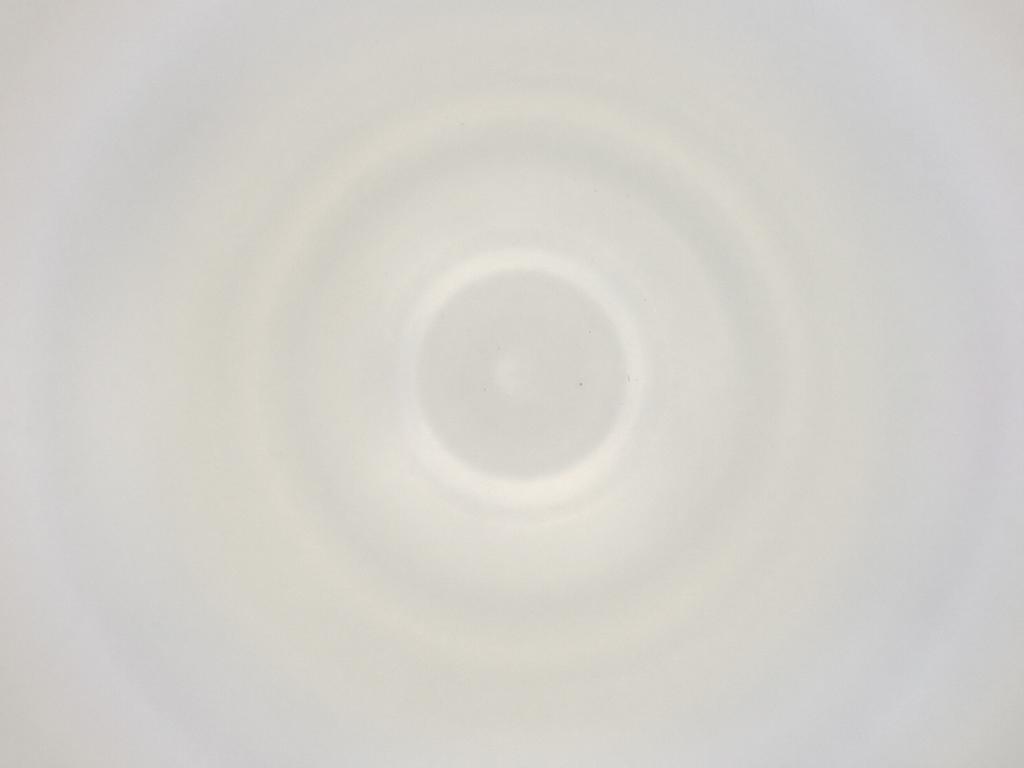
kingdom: Animalia
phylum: Arthropoda
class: Insecta
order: Diptera
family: Cecidomyiidae
